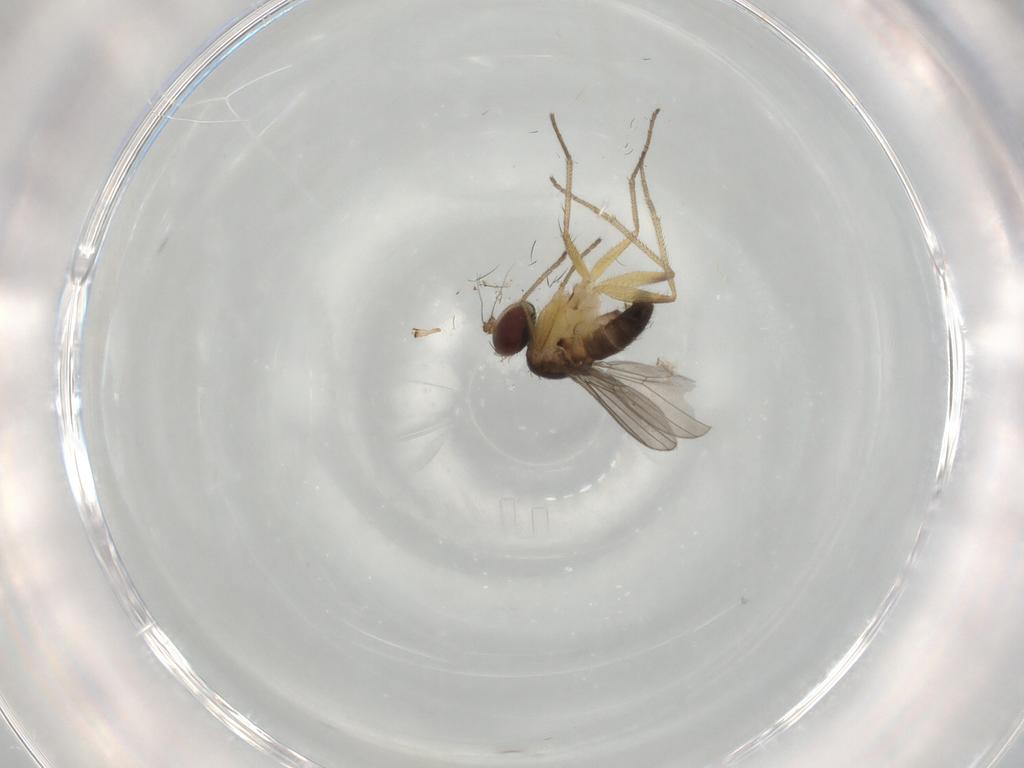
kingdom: Animalia
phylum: Arthropoda
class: Insecta
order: Diptera
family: Dolichopodidae
